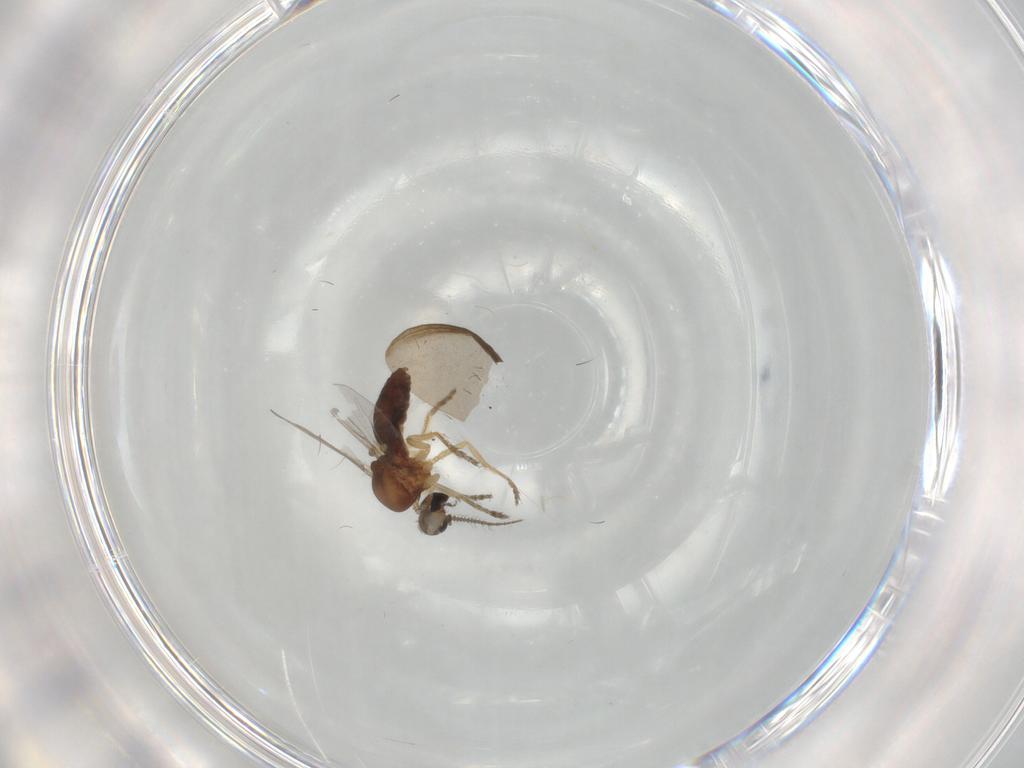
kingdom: Animalia
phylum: Arthropoda
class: Insecta
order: Diptera
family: Ceratopogonidae
